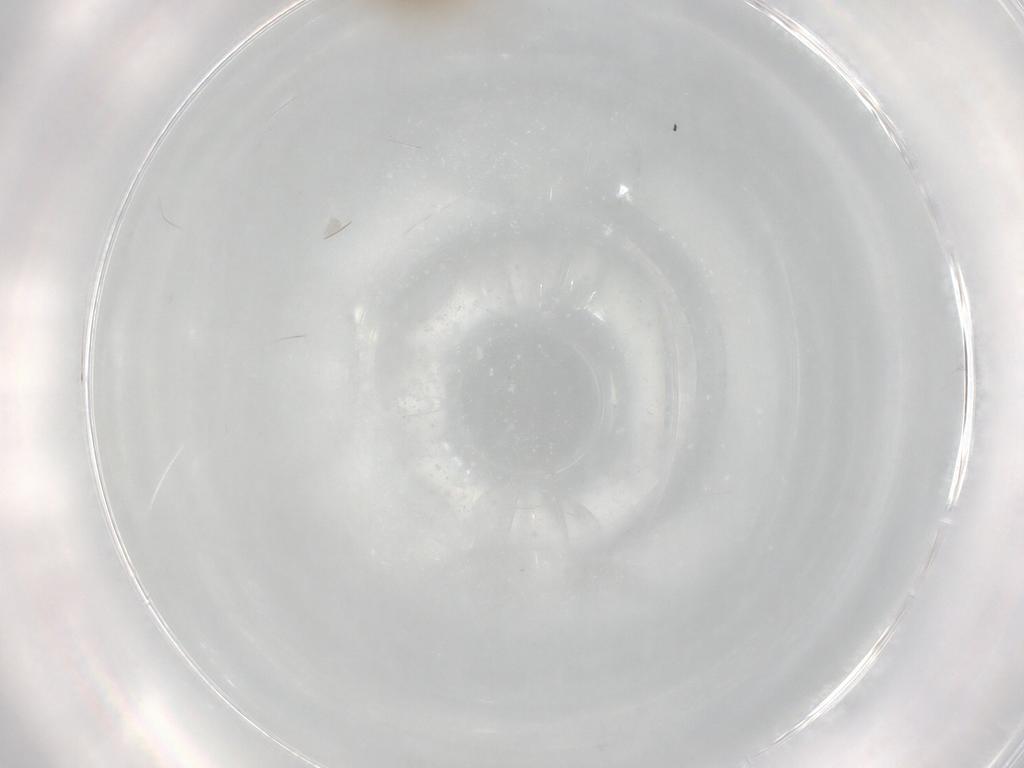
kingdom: Animalia
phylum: Arthropoda
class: Insecta
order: Diptera
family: Chironomidae
